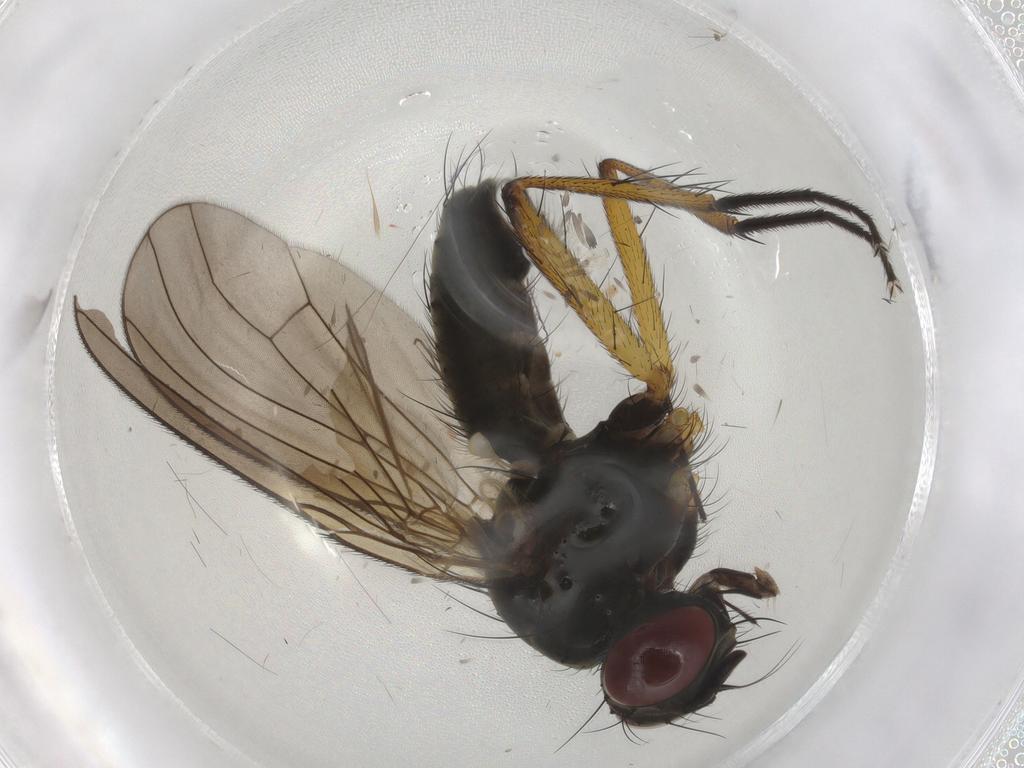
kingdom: Animalia
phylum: Arthropoda
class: Insecta
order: Diptera
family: Muscidae
